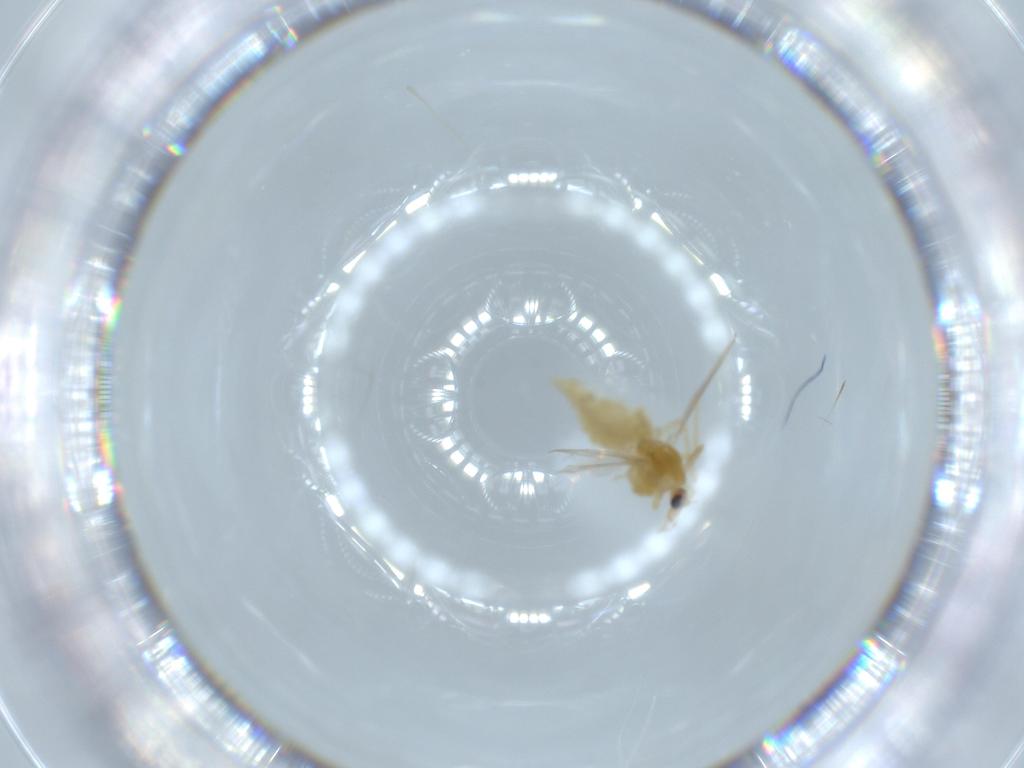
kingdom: Animalia
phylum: Arthropoda
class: Insecta
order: Diptera
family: Chironomidae
